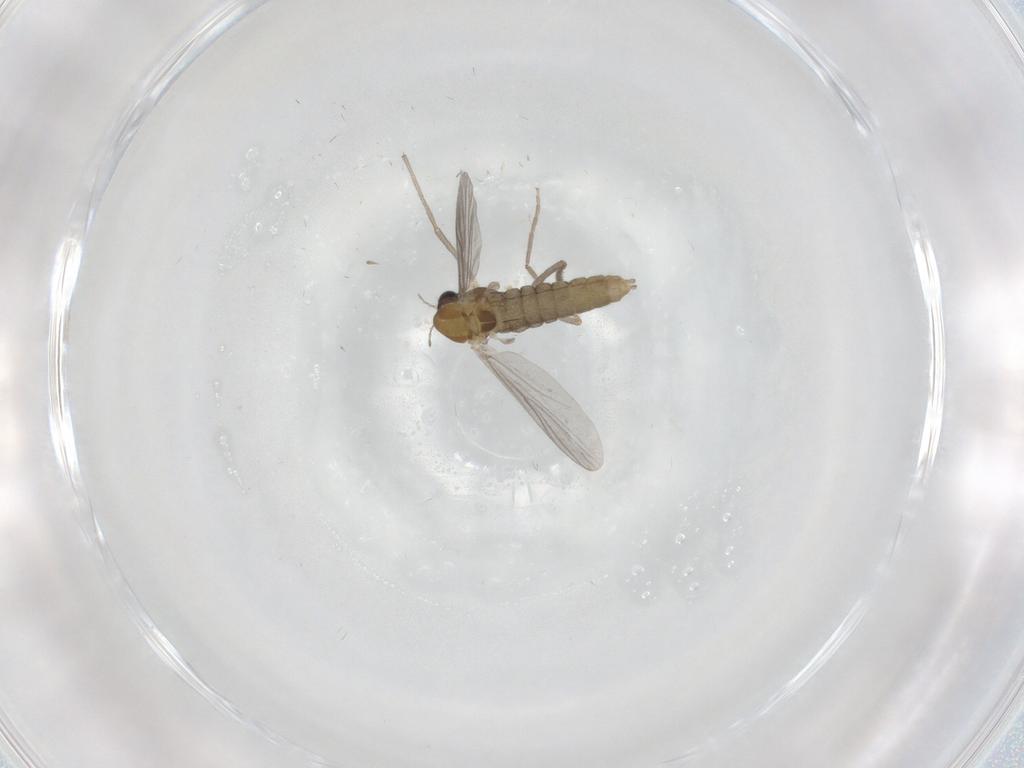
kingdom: Animalia
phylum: Arthropoda
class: Insecta
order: Diptera
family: Chironomidae
